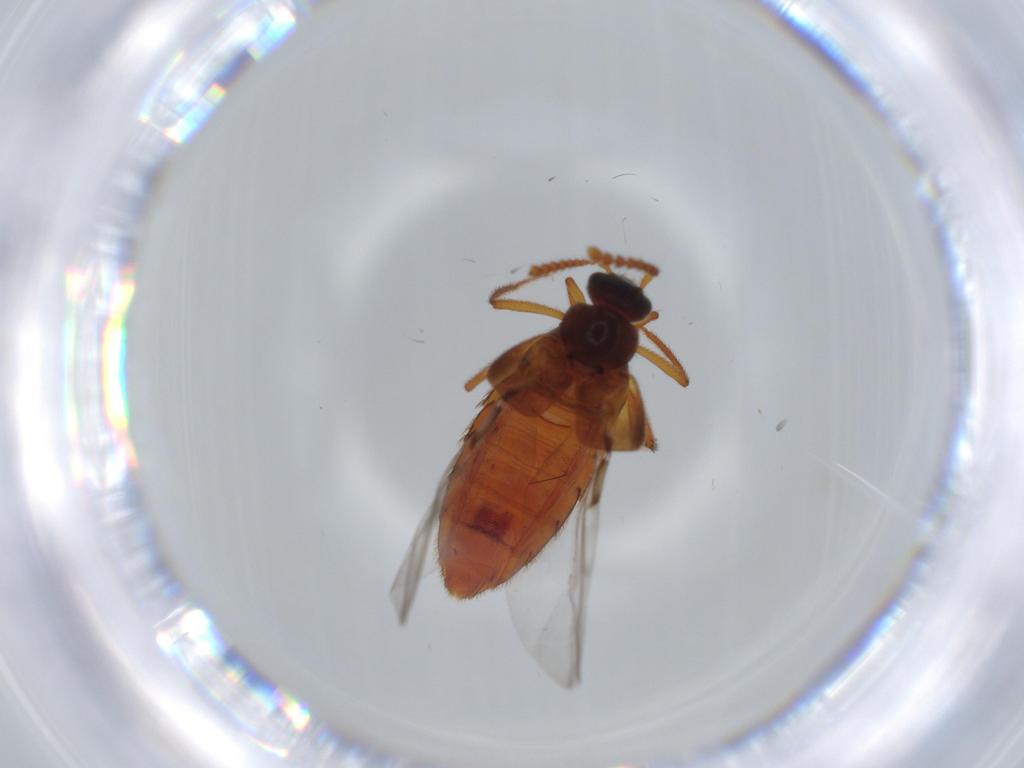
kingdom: Animalia
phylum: Arthropoda
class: Insecta
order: Coleoptera
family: Staphylinidae
